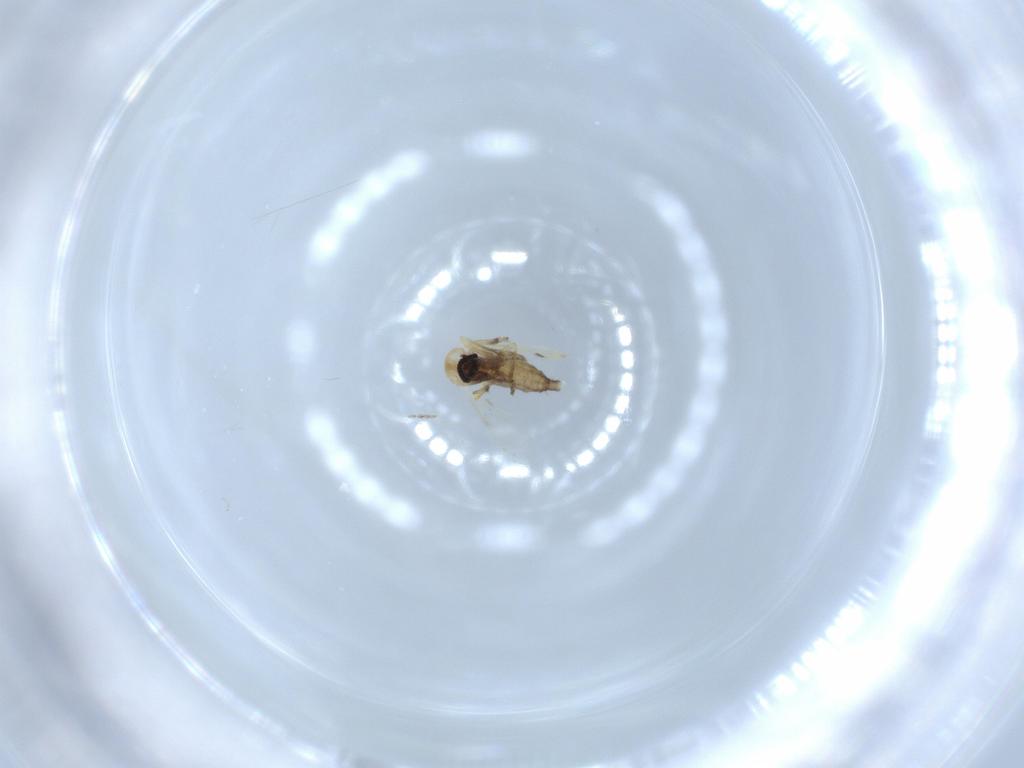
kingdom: Animalia
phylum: Arthropoda
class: Insecta
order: Diptera
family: Ceratopogonidae
